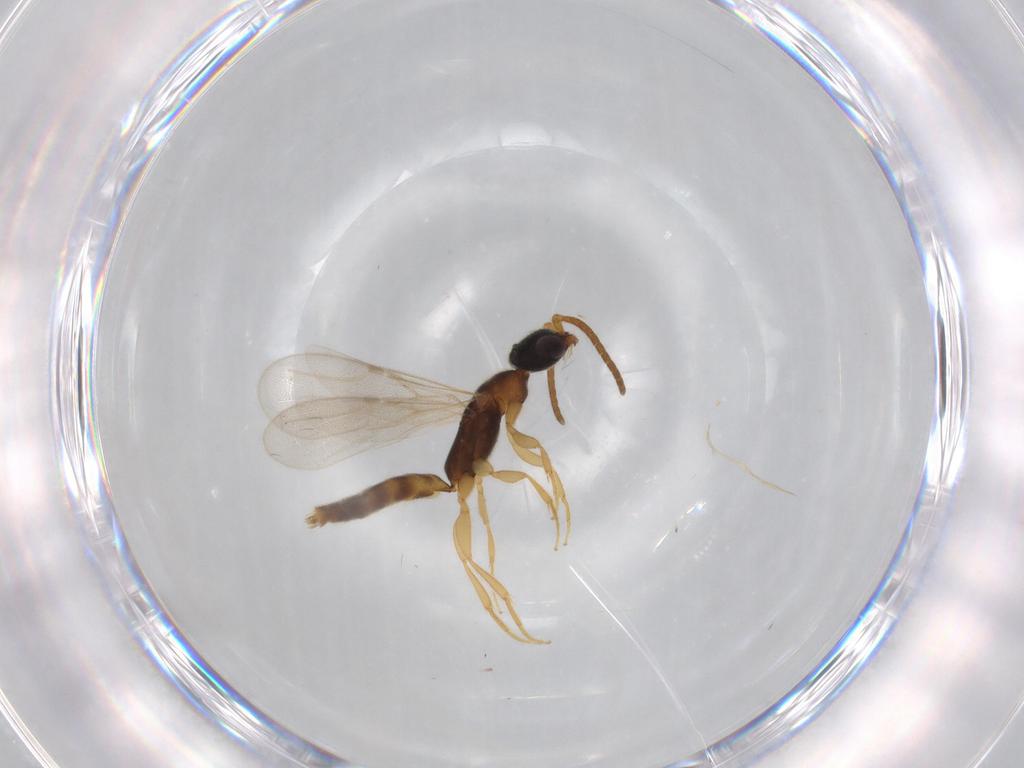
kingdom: Animalia
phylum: Arthropoda
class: Insecta
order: Hymenoptera
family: Bethylidae
